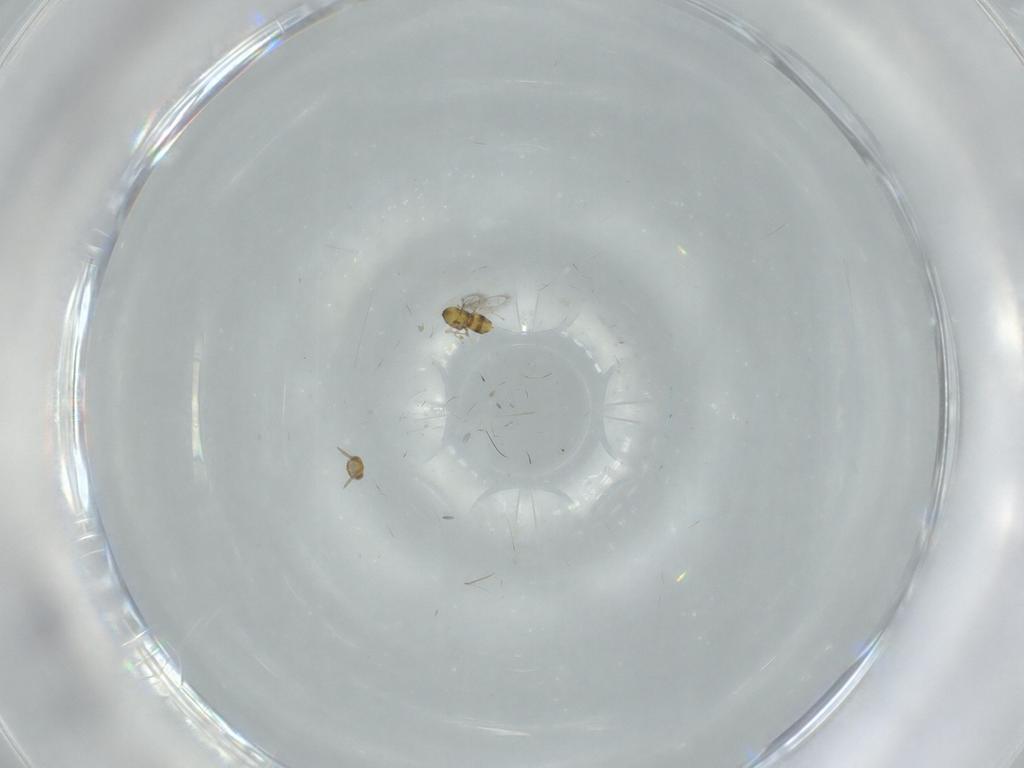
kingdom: Animalia
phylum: Arthropoda
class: Insecta
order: Hymenoptera
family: Aphelinidae
